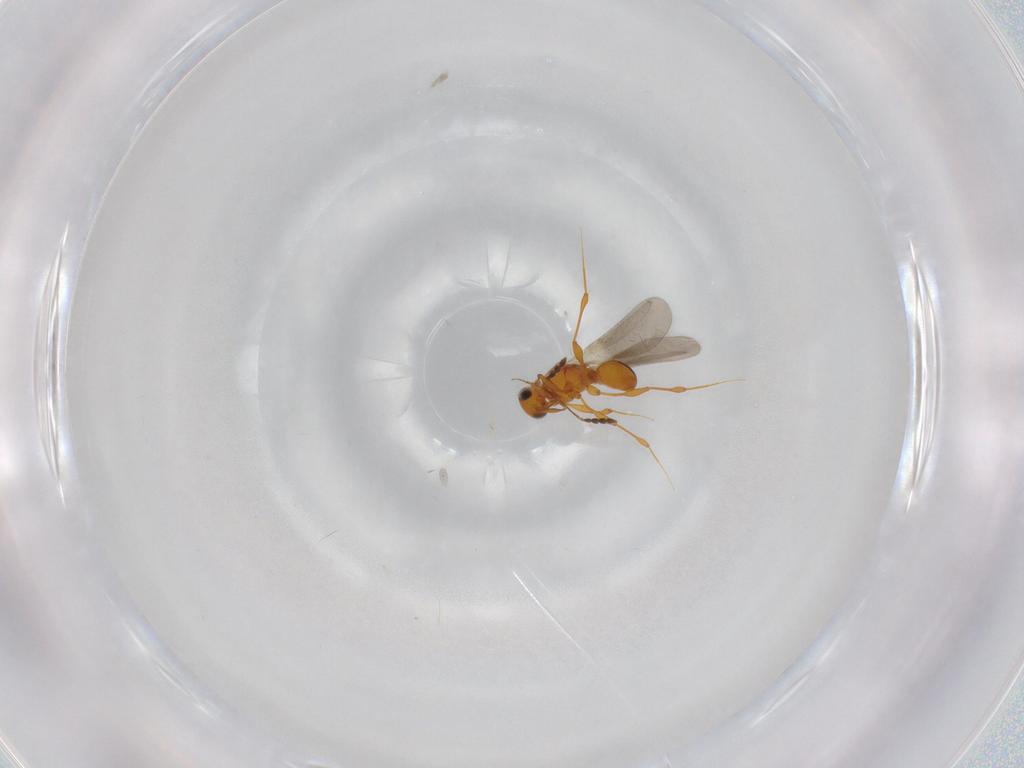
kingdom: Animalia
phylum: Arthropoda
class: Insecta
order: Hymenoptera
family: Platygastridae
